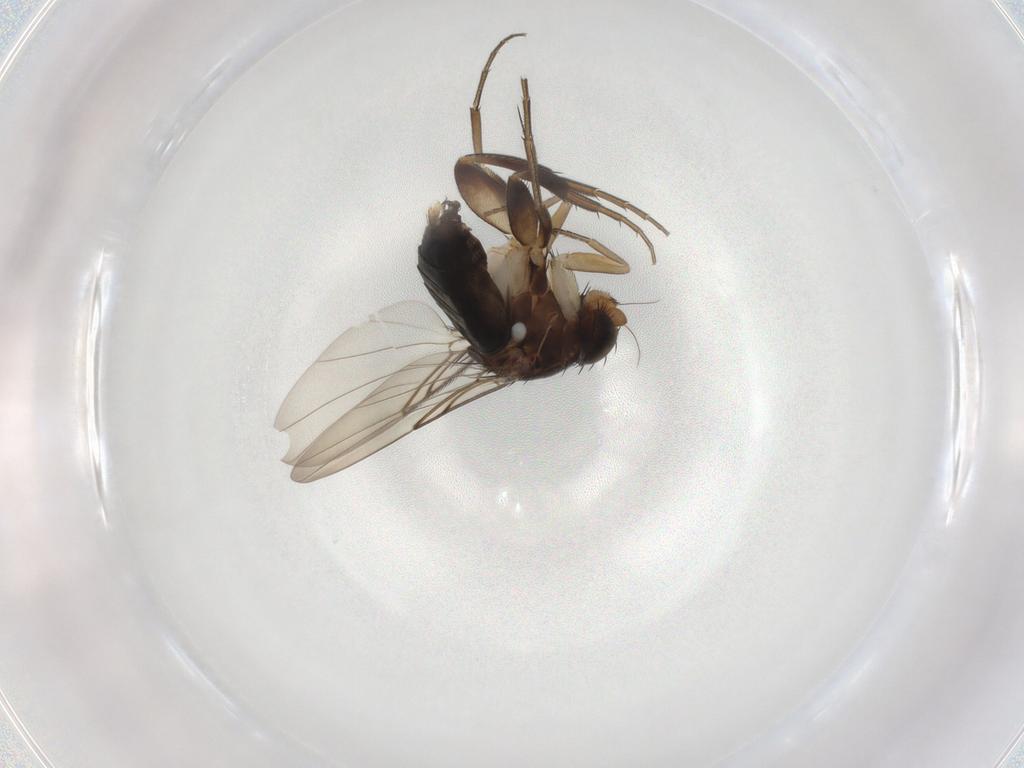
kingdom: Animalia
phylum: Arthropoda
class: Insecta
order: Diptera
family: Phoridae
